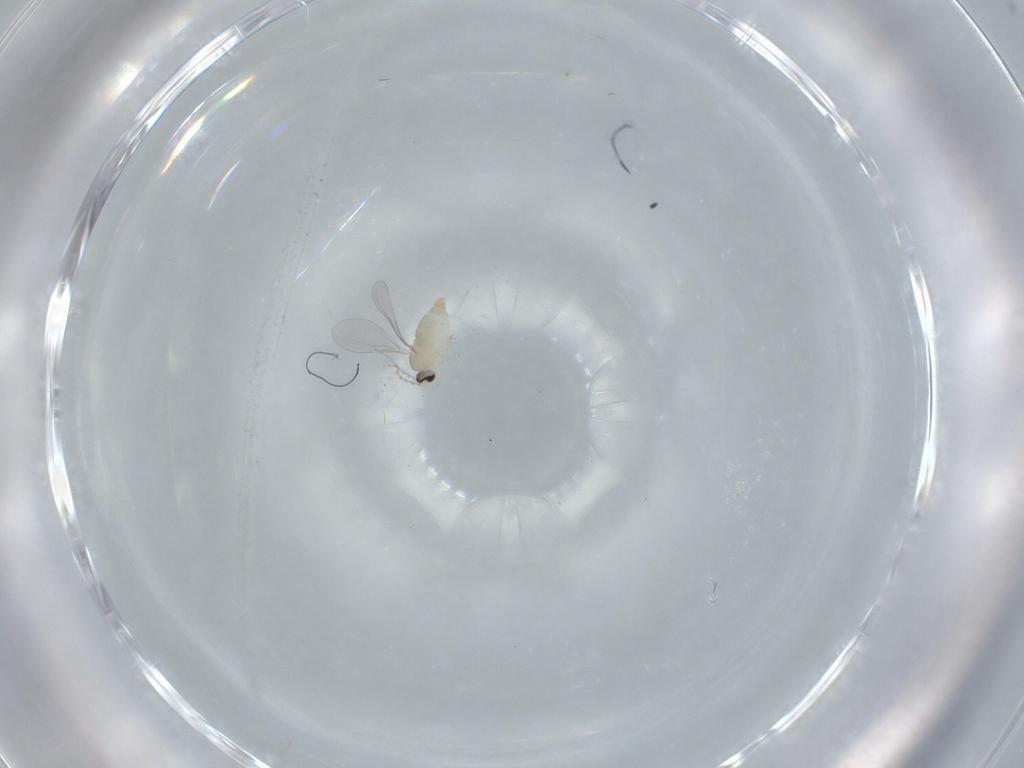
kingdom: Animalia
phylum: Arthropoda
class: Insecta
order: Diptera
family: Cecidomyiidae
